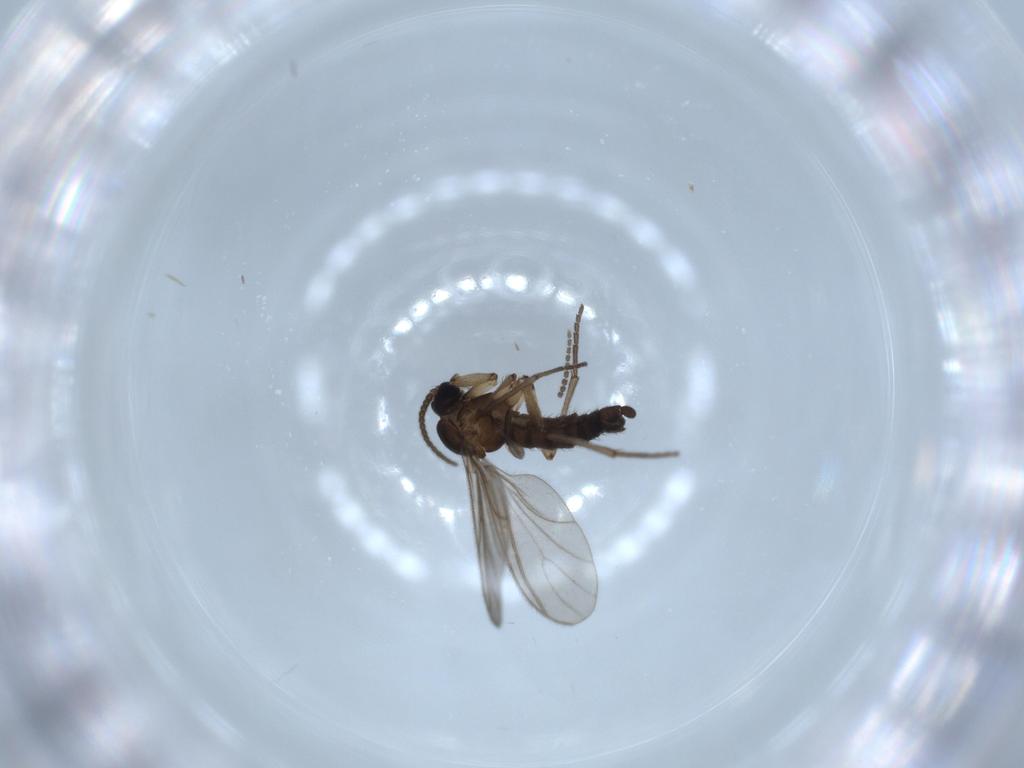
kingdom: Animalia
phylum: Arthropoda
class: Insecta
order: Diptera
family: Sciaridae
